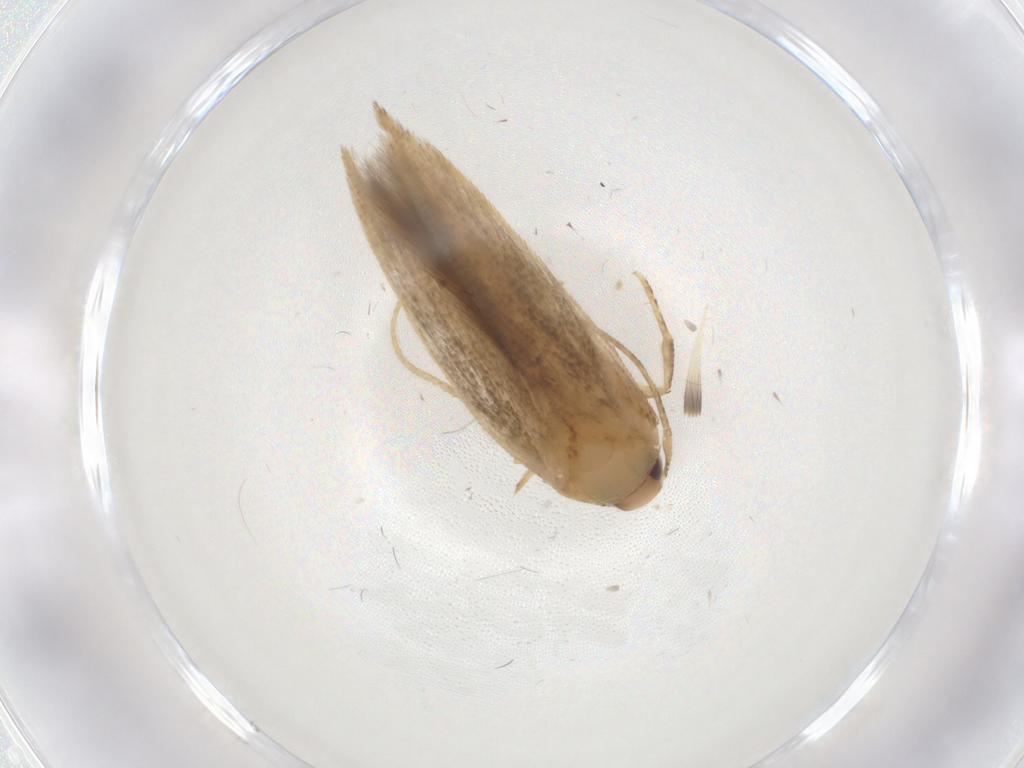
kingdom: Animalia
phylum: Arthropoda
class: Insecta
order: Lepidoptera
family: Cosmopterigidae
